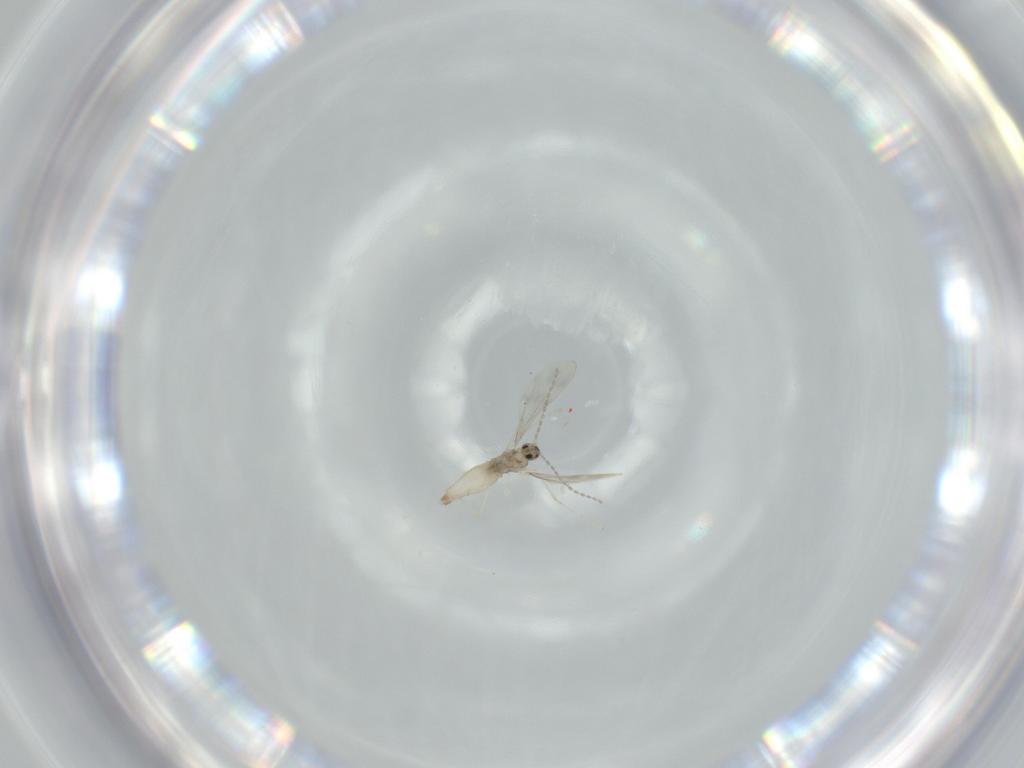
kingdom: Animalia
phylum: Arthropoda
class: Insecta
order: Diptera
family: Cecidomyiidae
